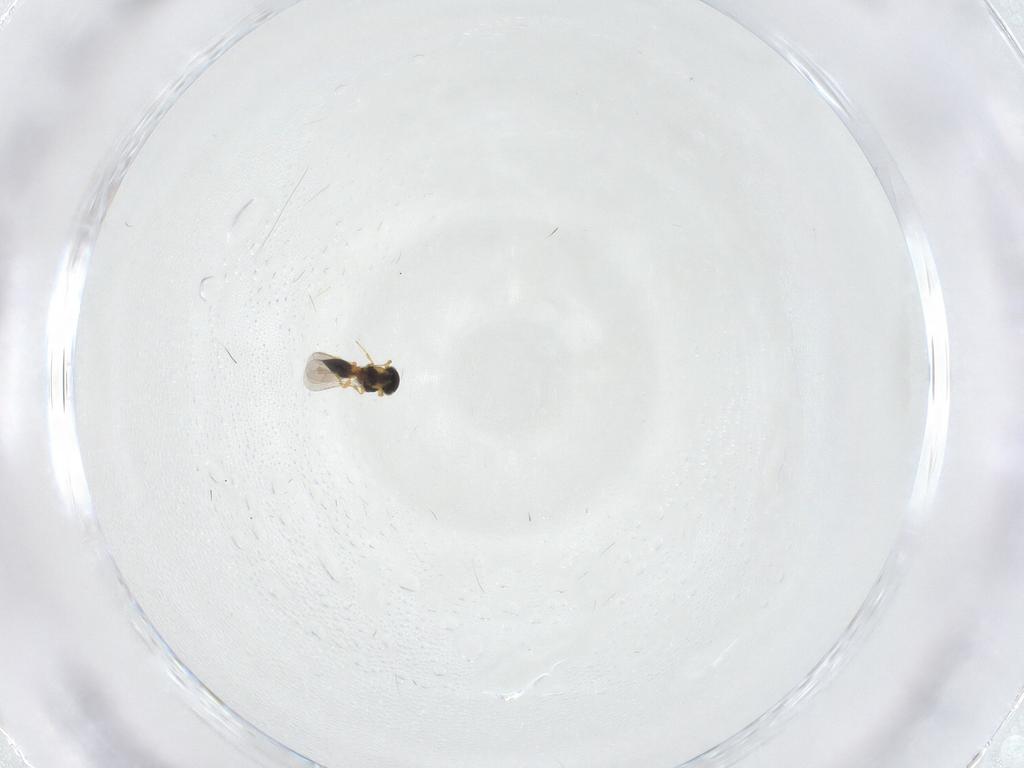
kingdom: Animalia
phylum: Arthropoda
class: Insecta
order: Hymenoptera
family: Platygastridae
